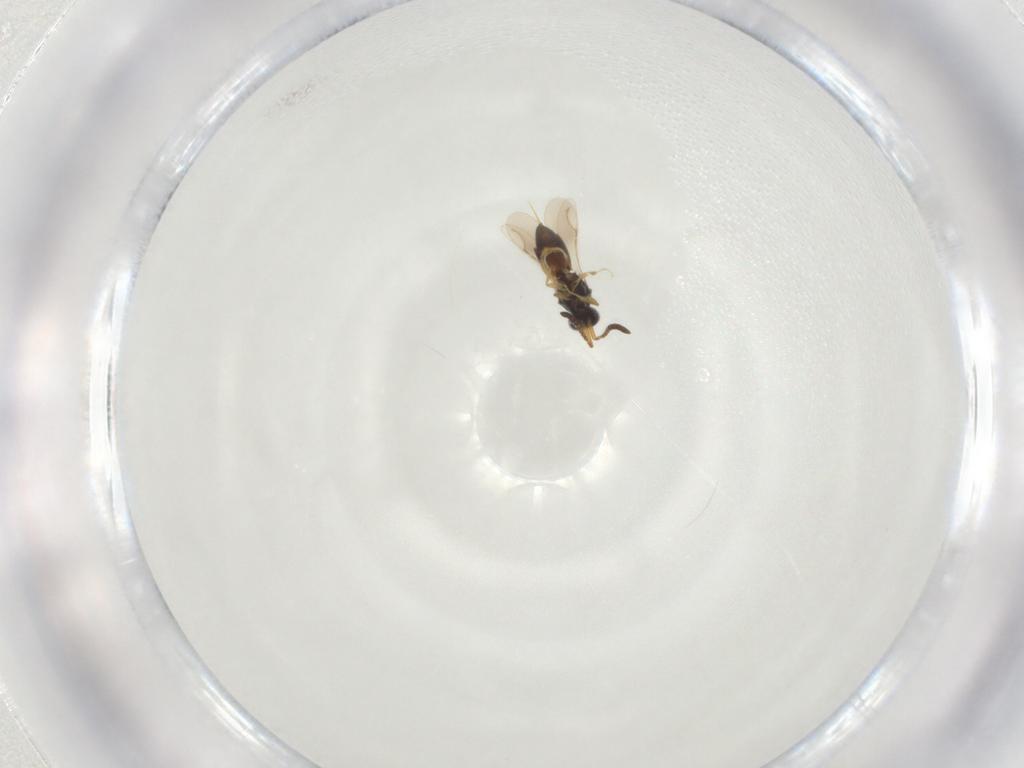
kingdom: Animalia
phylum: Arthropoda
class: Insecta
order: Hymenoptera
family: Ceraphronidae
